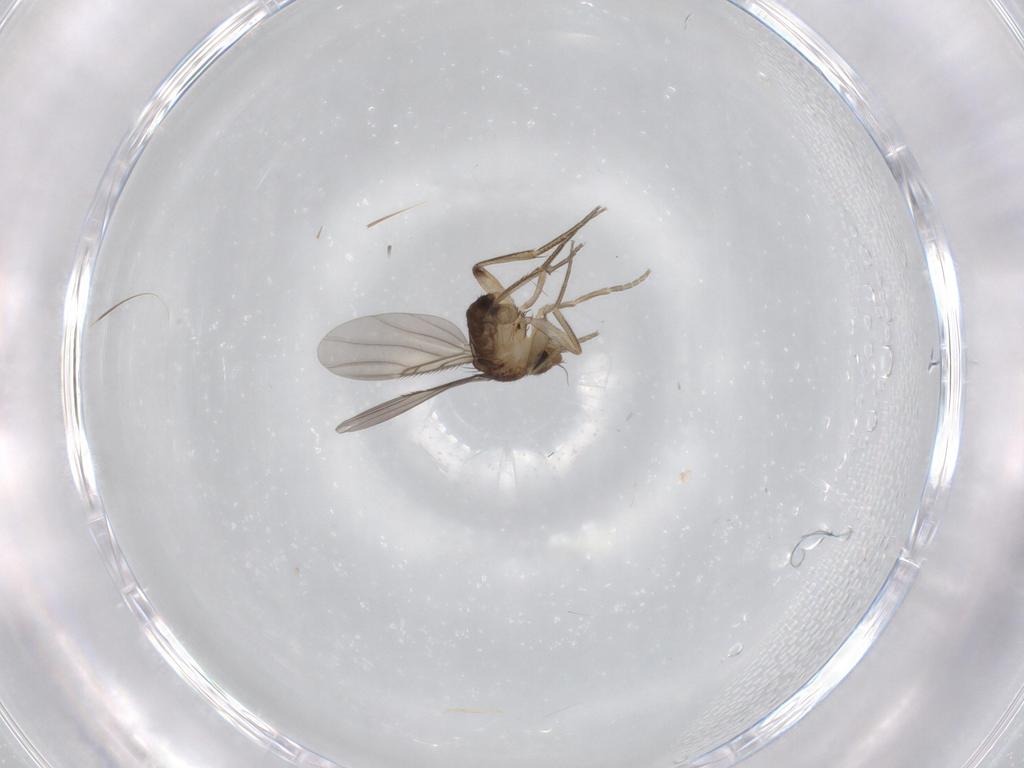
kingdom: Animalia
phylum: Arthropoda
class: Insecta
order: Diptera
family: Phoridae
